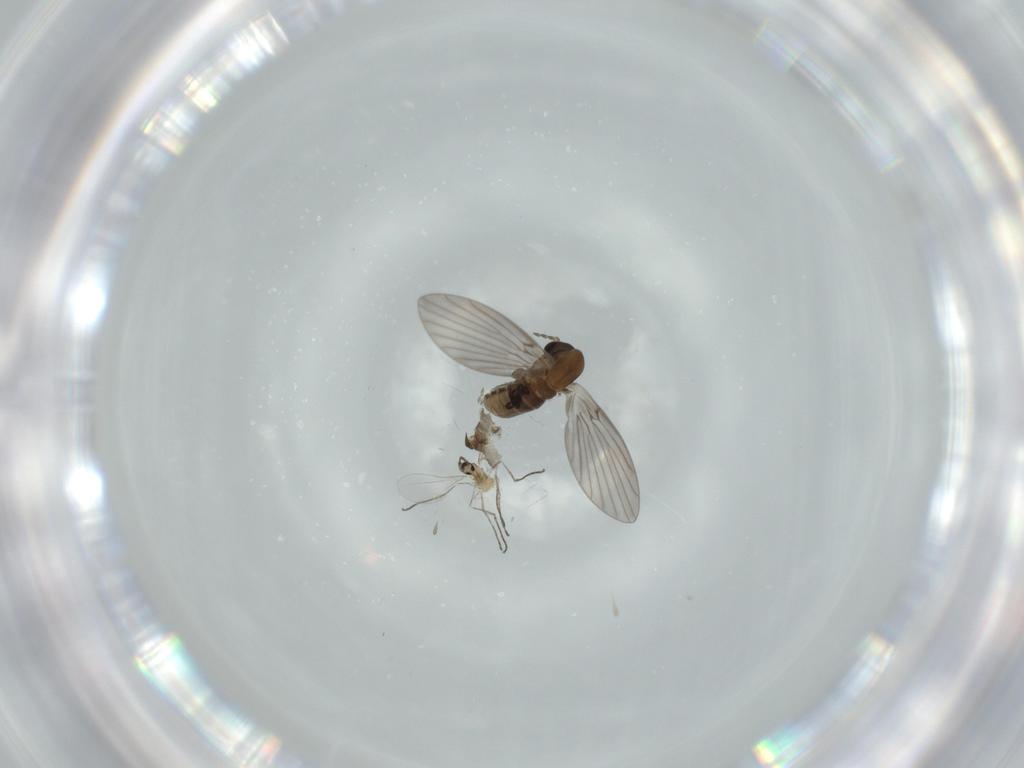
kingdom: Animalia
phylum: Arthropoda
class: Insecta
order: Diptera
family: Cecidomyiidae
